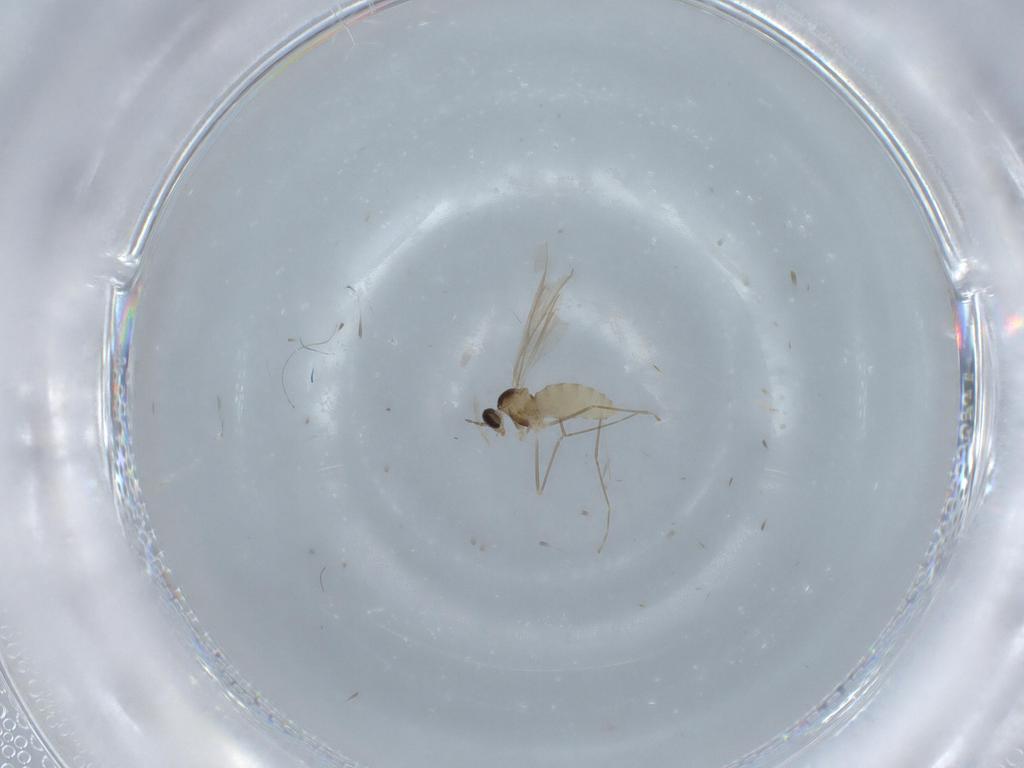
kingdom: Animalia
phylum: Arthropoda
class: Insecta
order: Diptera
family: Cecidomyiidae
